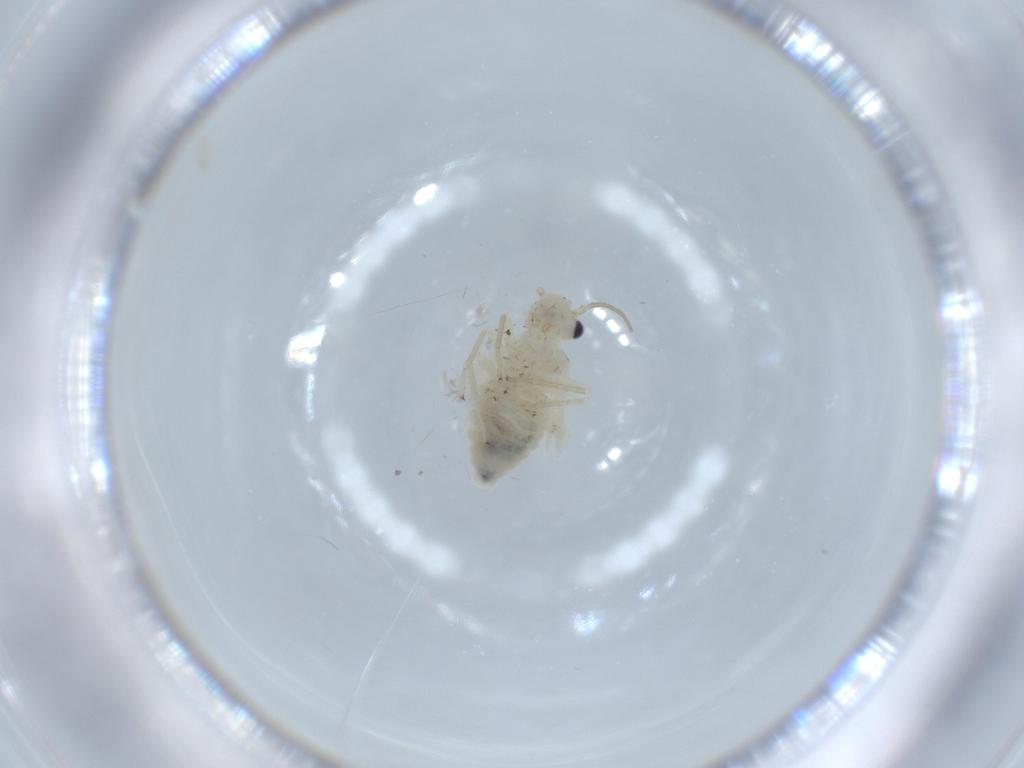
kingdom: Animalia
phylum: Arthropoda
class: Insecta
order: Psocodea
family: Caeciliusidae
